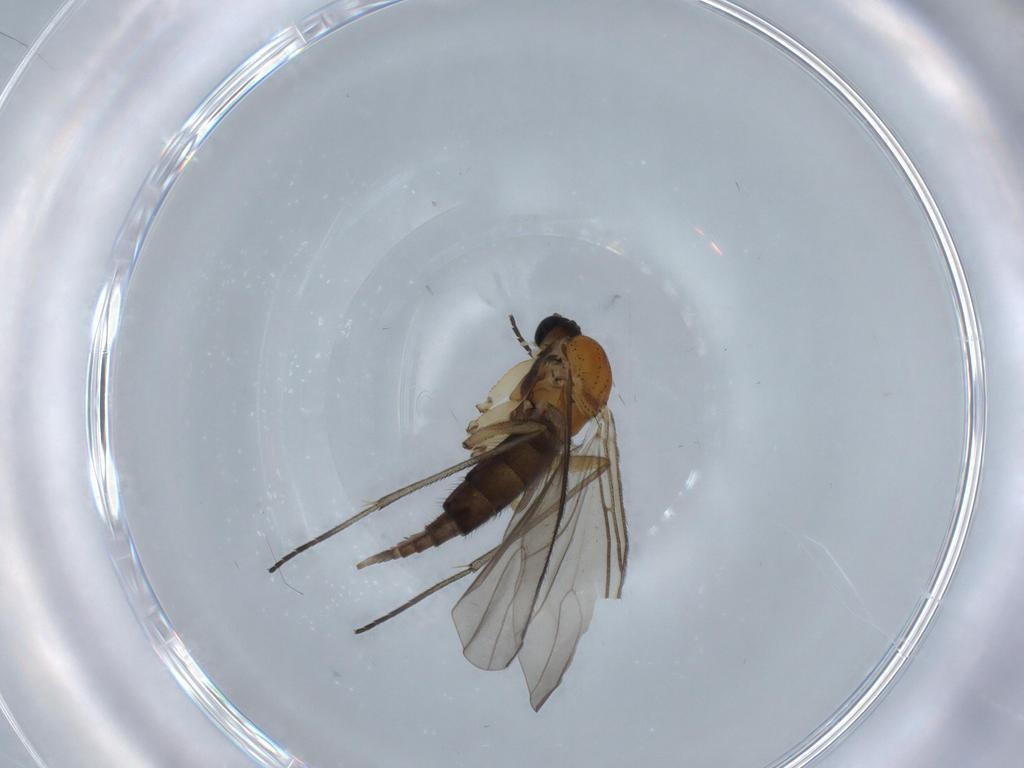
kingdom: Animalia
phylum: Arthropoda
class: Insecta
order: Diptera
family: Sciaridae
